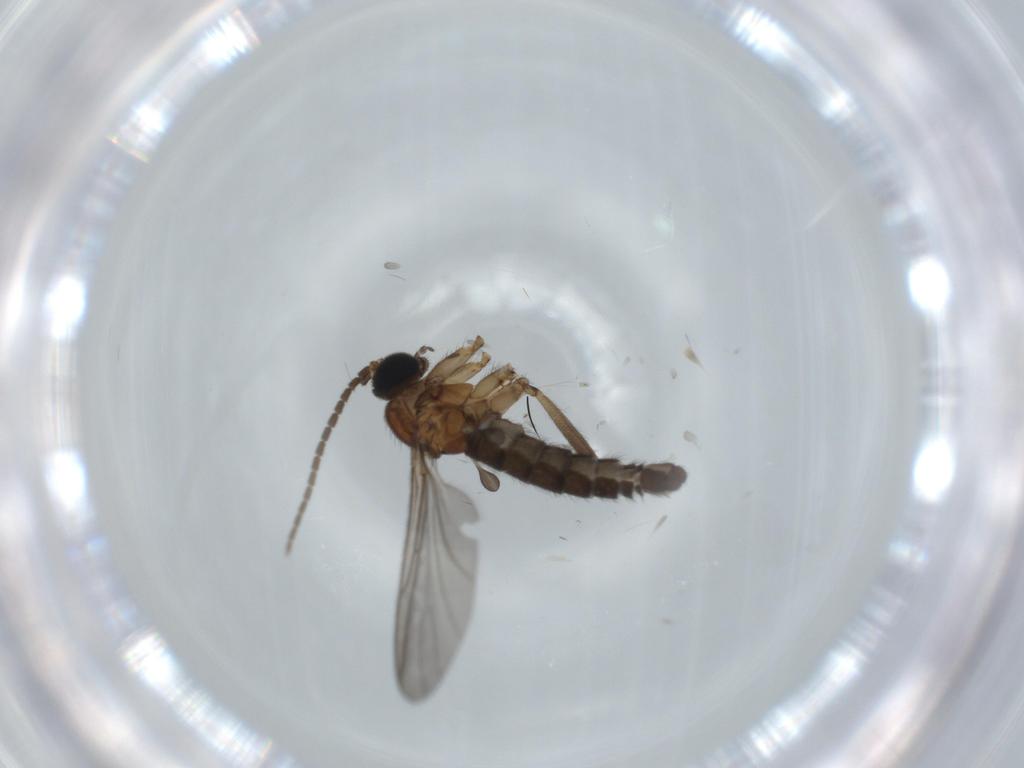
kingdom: Animalia
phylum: Arthropoda
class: Insecta
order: Diptera
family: Sciaridae
